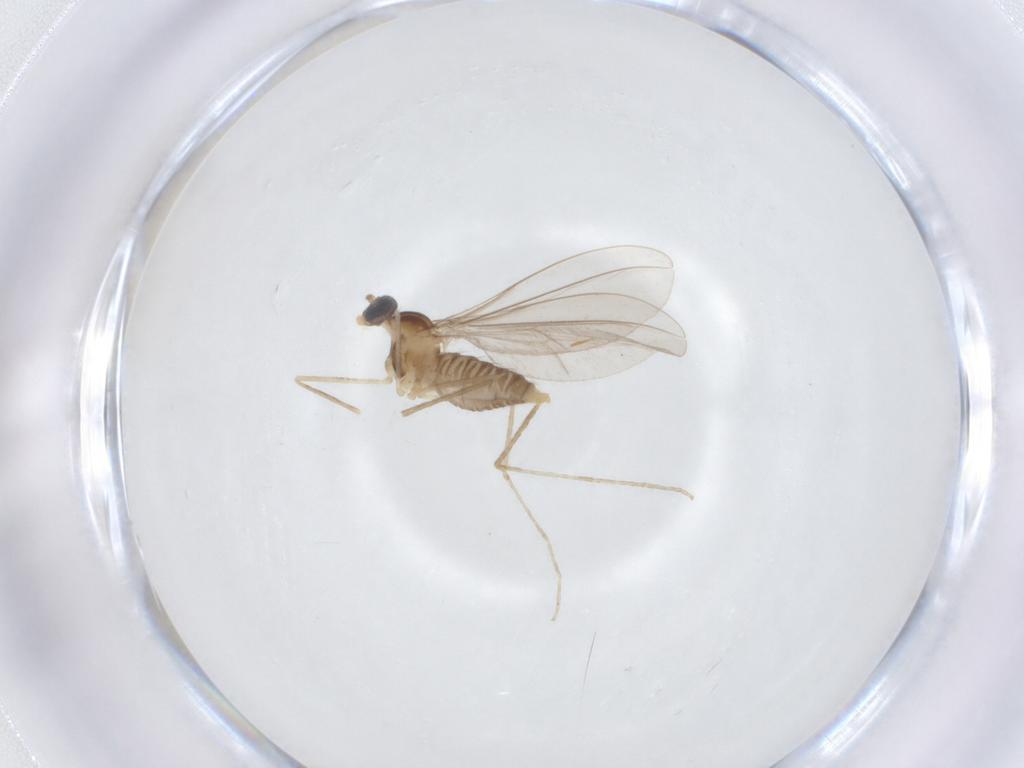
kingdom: Animalia
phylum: Arthropoda
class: Insecta
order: Diptera
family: Cecidomyiidae
